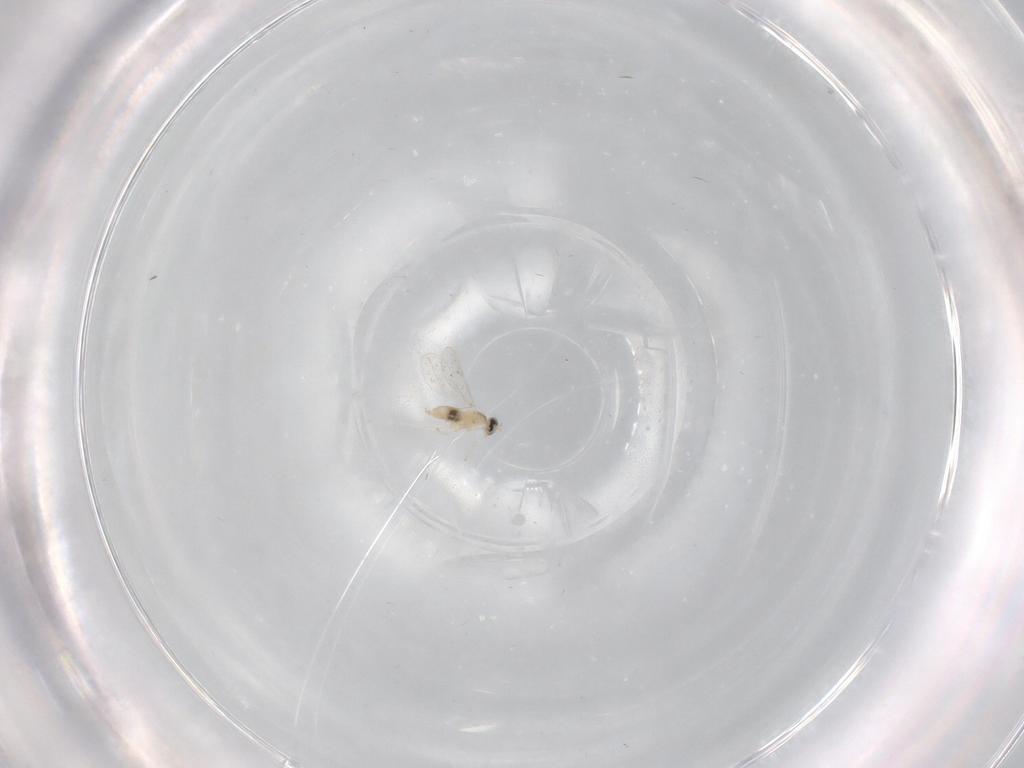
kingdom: Animalia
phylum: Arthropoda
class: Insecta
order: Diptera
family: Cecidomyiidae
